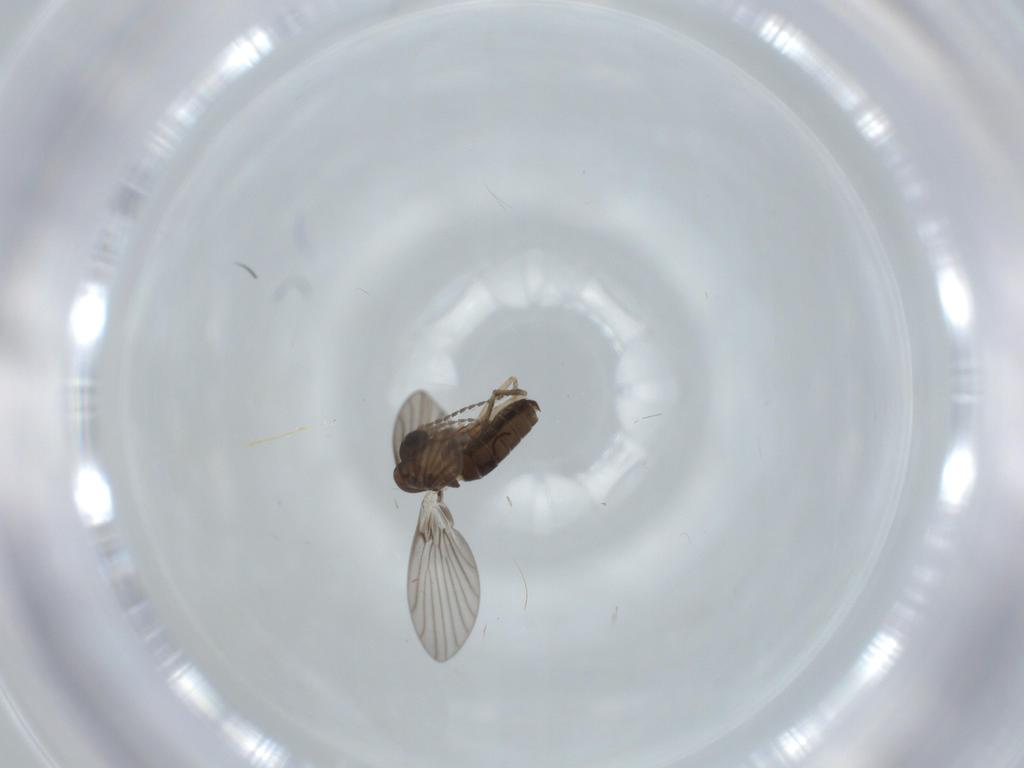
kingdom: Animalia
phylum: Arthropoda
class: Insecta
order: Diptera
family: Psychodidae
